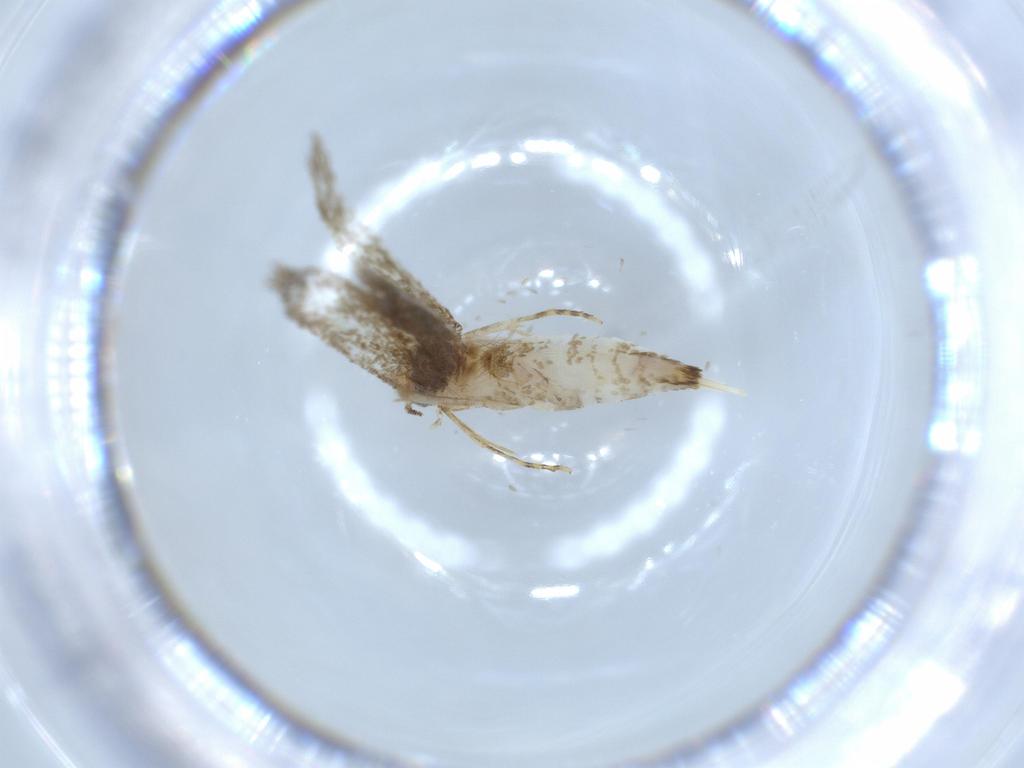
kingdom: Animalia
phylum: Arthropoda
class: Insecta
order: Lepidoptera
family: Tineidae
